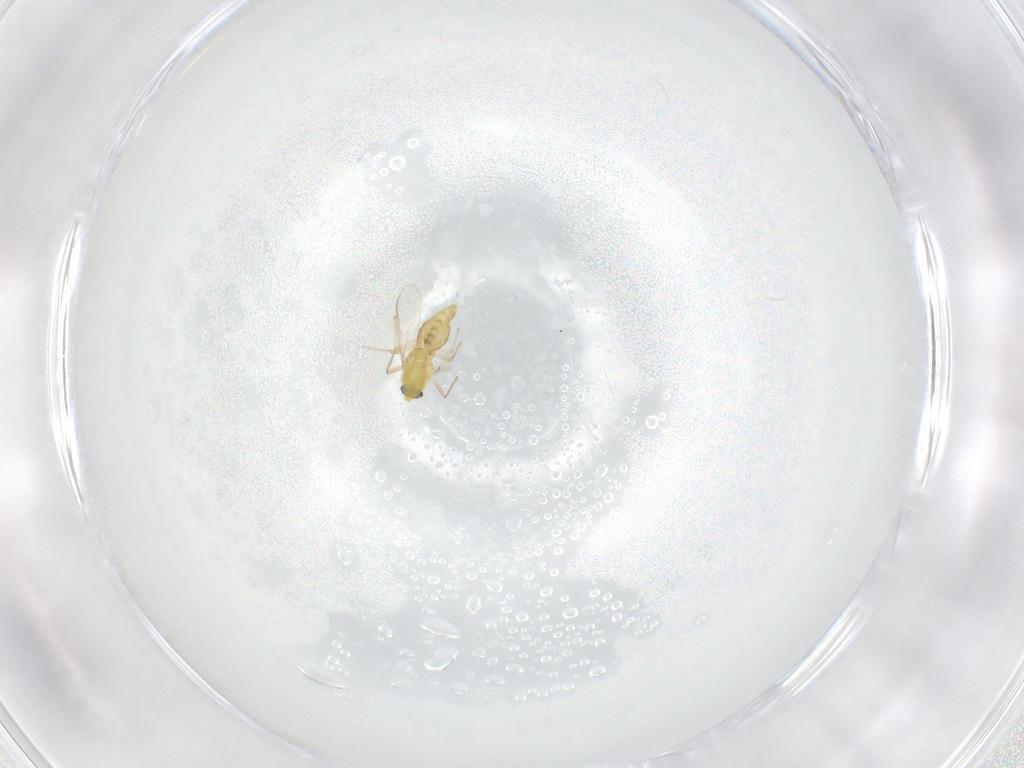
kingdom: Animalia
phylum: Arthropoda
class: Insecta
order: Diptera
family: Chironomidae
